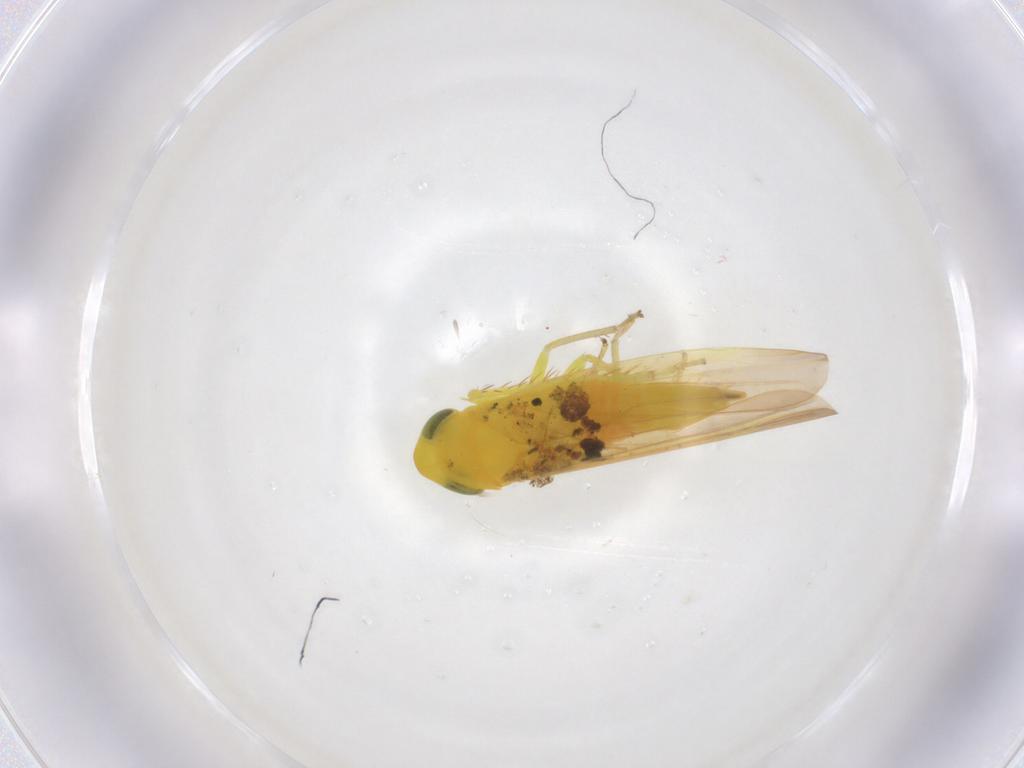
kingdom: Animalia
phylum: Arthropoda
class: Insecta
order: Hemiptera
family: Cicadellidae
